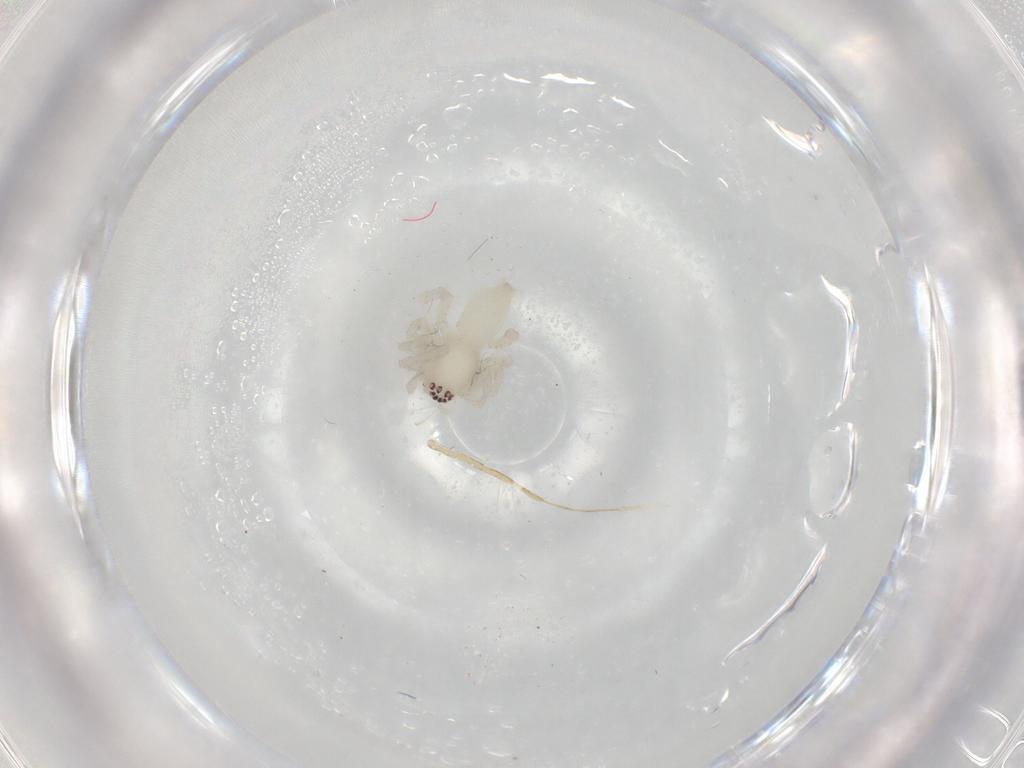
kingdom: Animalia
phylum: Arthropoda
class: Arachnida
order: Araneae
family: Anyphaenidae
